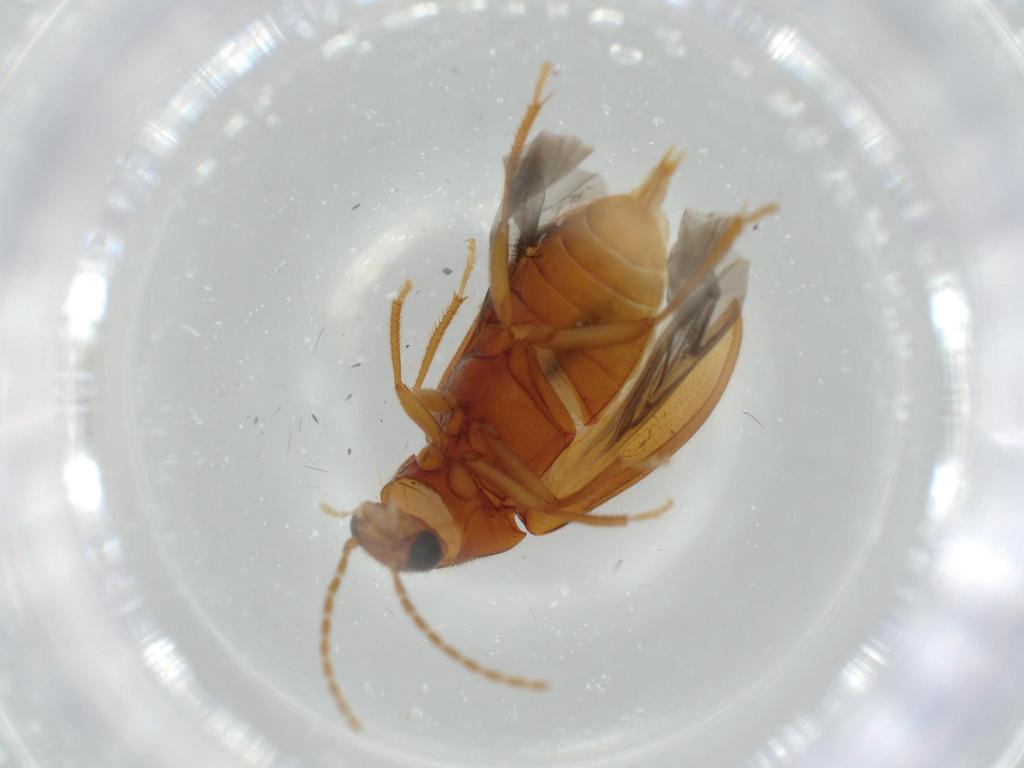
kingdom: Animalia
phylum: Arthropoda
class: Insecta
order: Coleoptera
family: Ptilodactylidae
